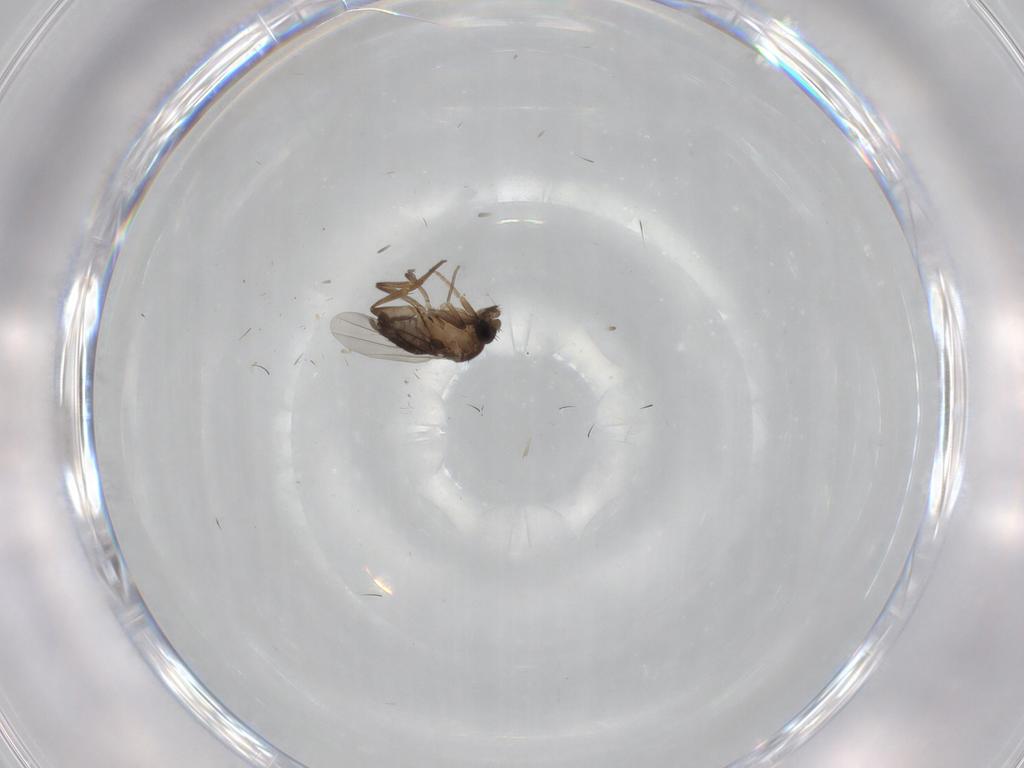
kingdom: Animalia
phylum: Arthropoda
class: Insecta
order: Diptera
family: Phoridae
